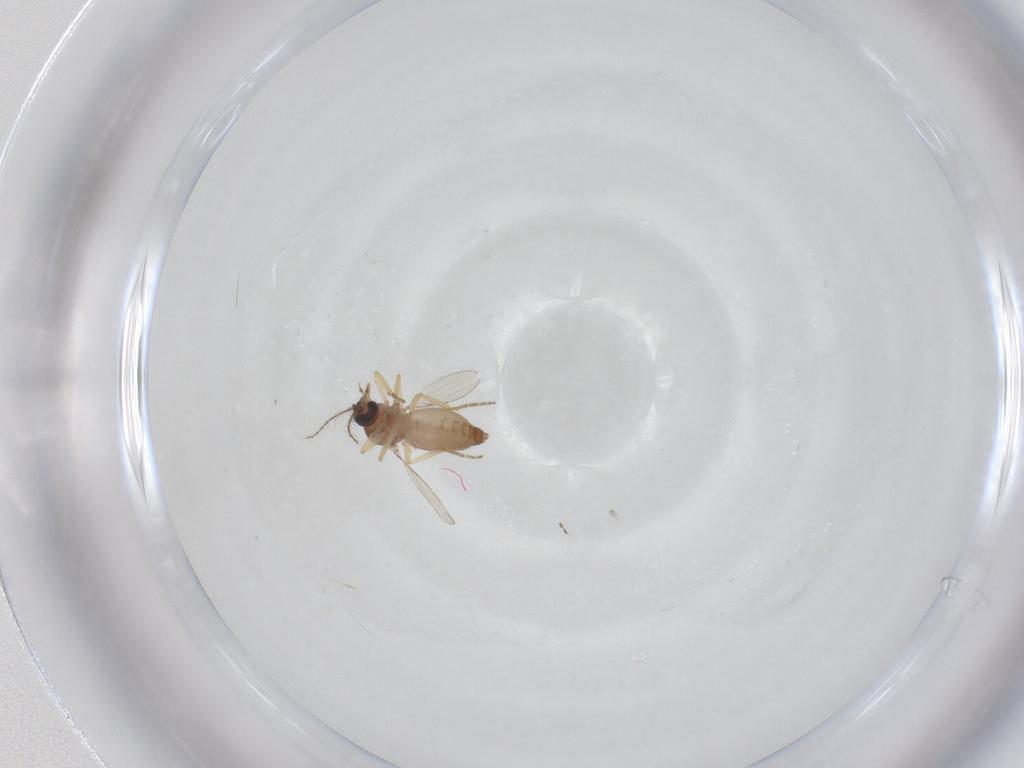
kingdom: Animalia
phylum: Arthropoda
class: Insecta
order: Diptera
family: Ceratopogonidae
